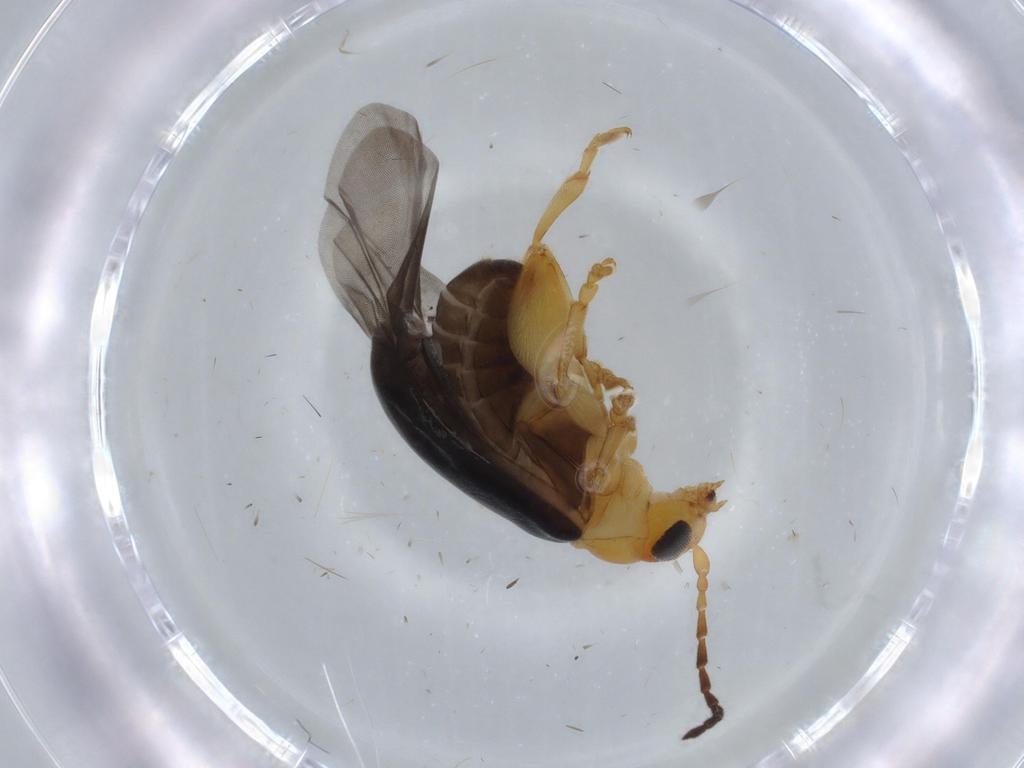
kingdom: Animalia
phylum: Arthropoda
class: Insecta
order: Coleoptera
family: Chrysomelidae
